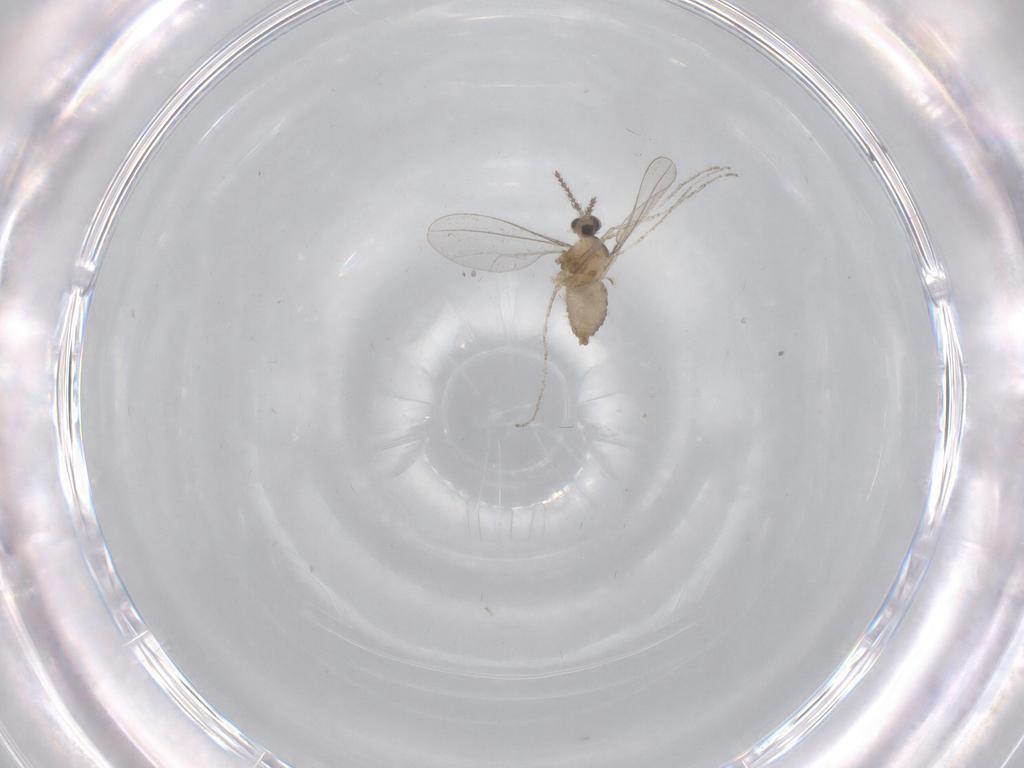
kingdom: Animalia
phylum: Arthropoda
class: Insecta
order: Diptera
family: Cecidomyiidae
